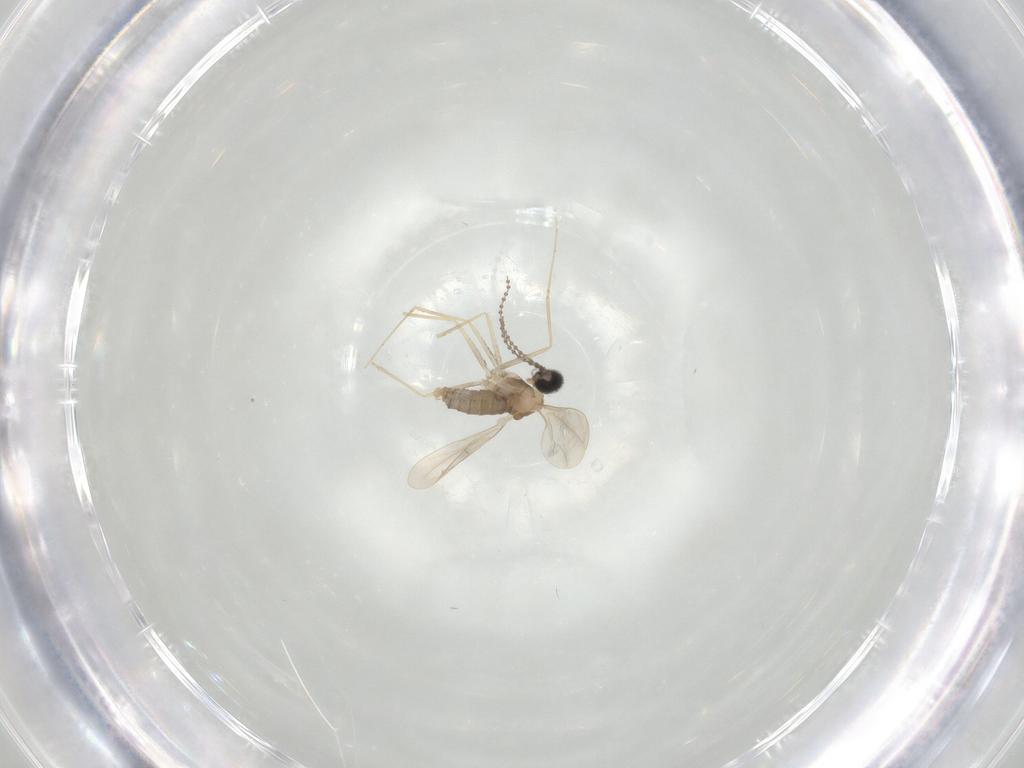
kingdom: Animalia
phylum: Arthropoda
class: Insecta
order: Diptera
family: Cecidomyiidae
